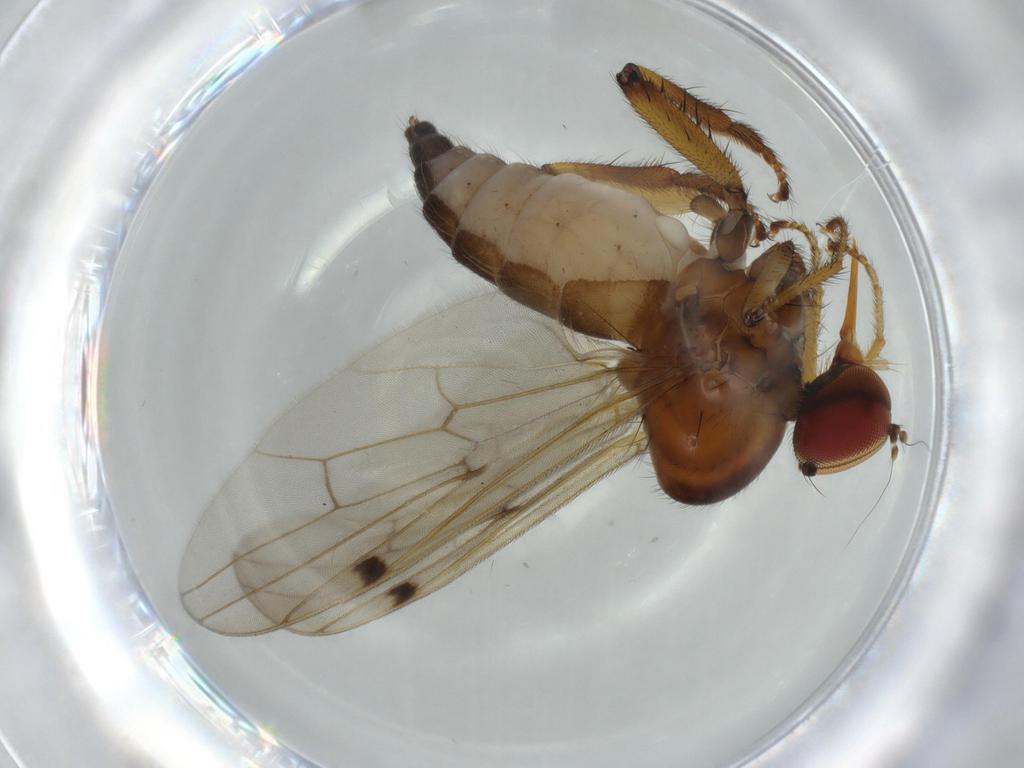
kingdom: Animalia
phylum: Arthropoda
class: Insecta
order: Diptera
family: Hybotidae
